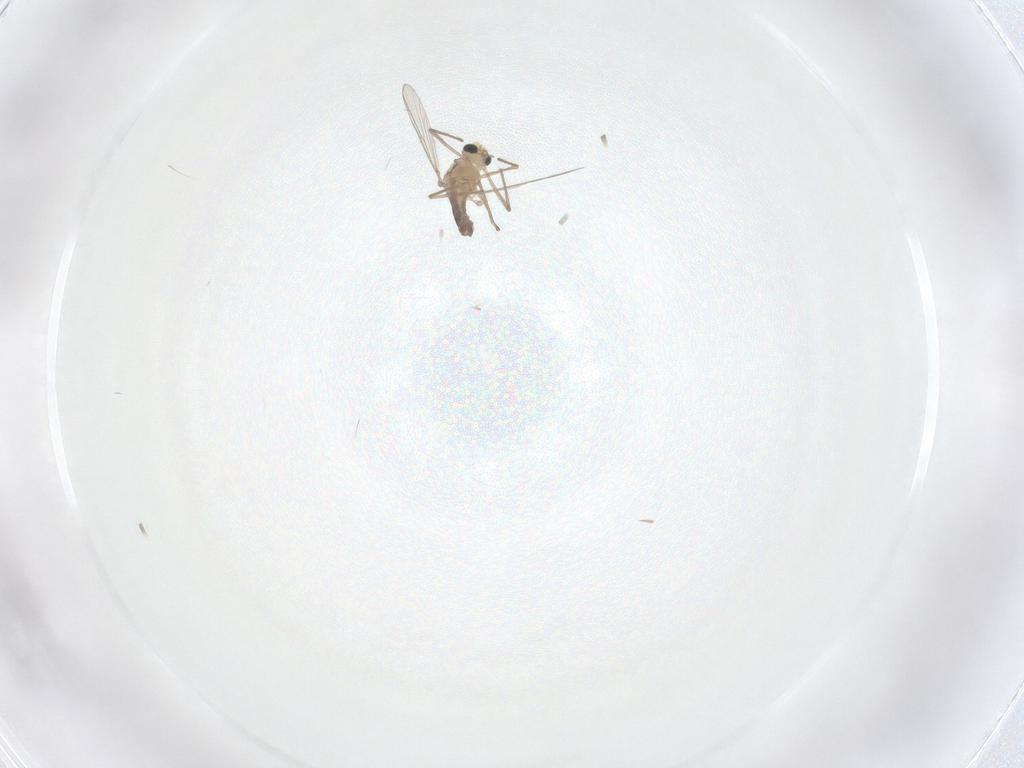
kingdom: Animalia
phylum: Arthropoda
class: Insecta
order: Diptera
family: Chironomidae
